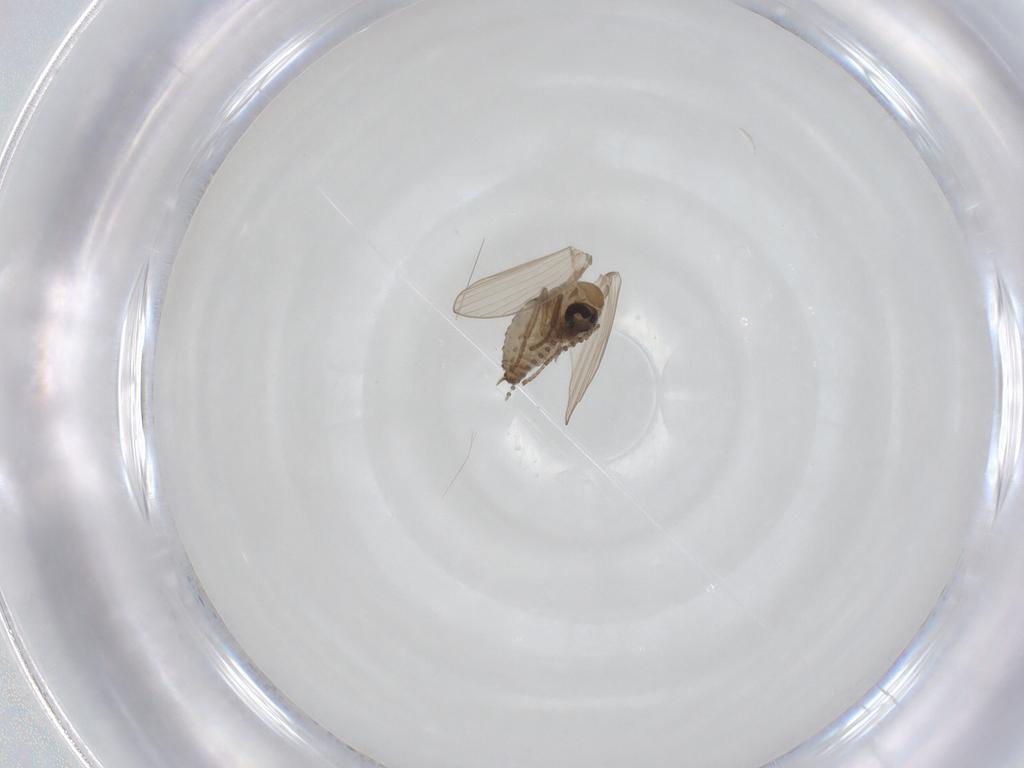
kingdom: Animalia
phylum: Arthropoda
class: Insecta
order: Diptera
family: Psychodidae
